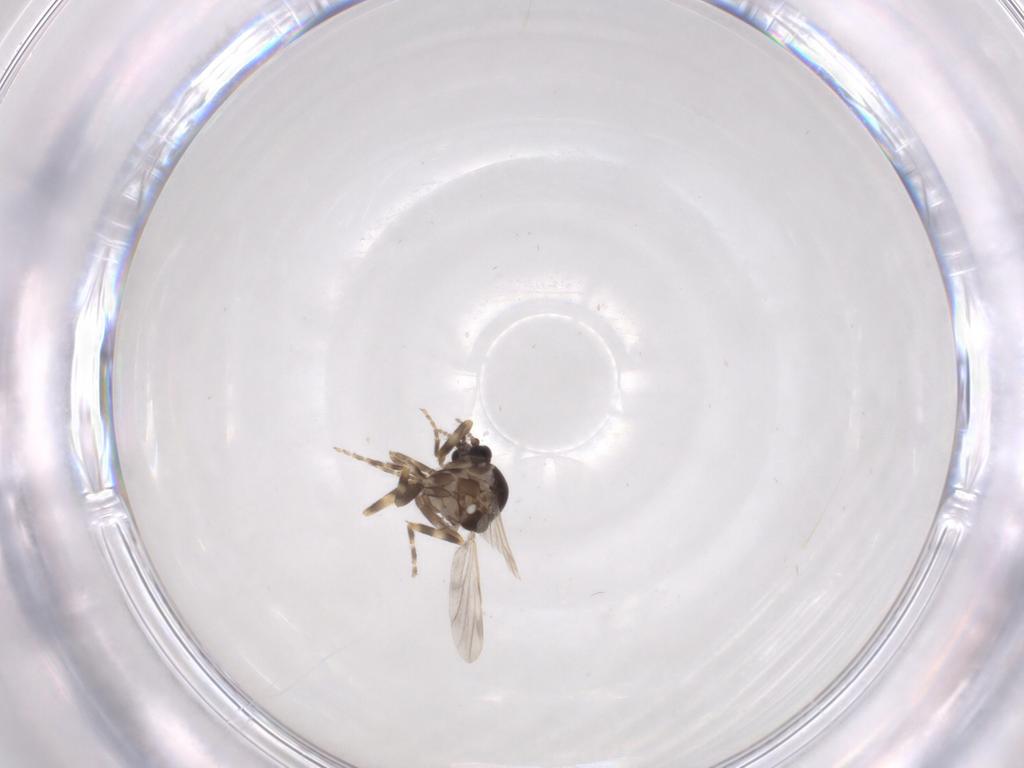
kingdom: Animalia
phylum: Arthropoda
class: Insecta
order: Diptera
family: Ceratopogonidae
